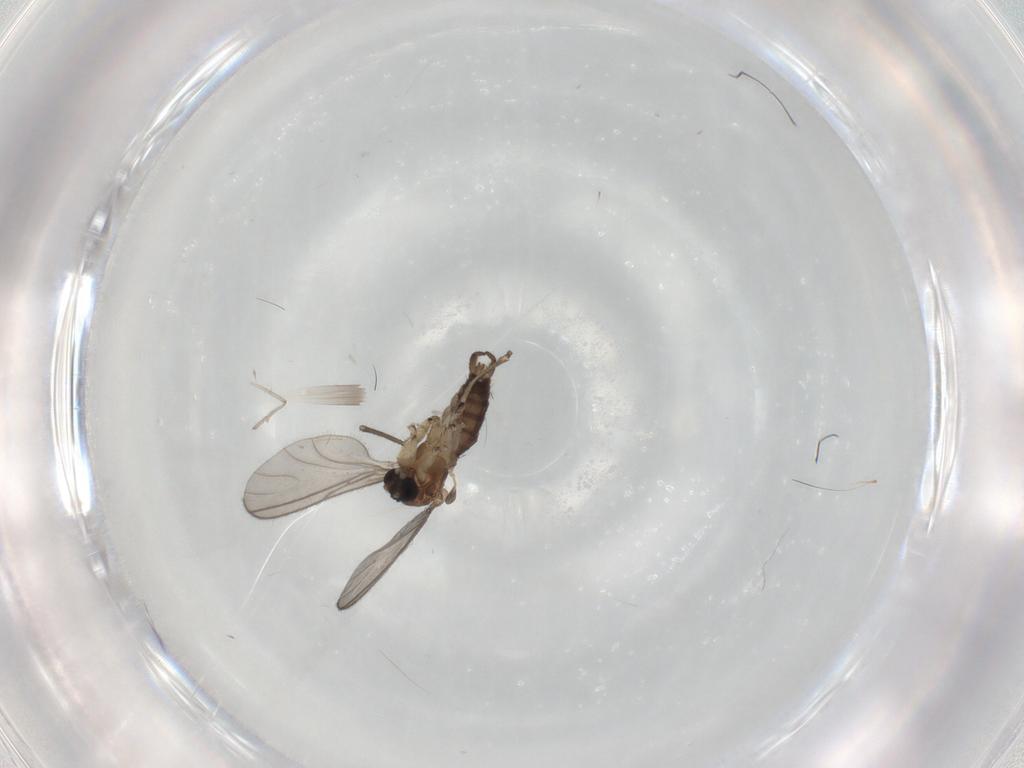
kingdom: Animalia
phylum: Arthropoda
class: Insecta
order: Diptera
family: Sciaridae
